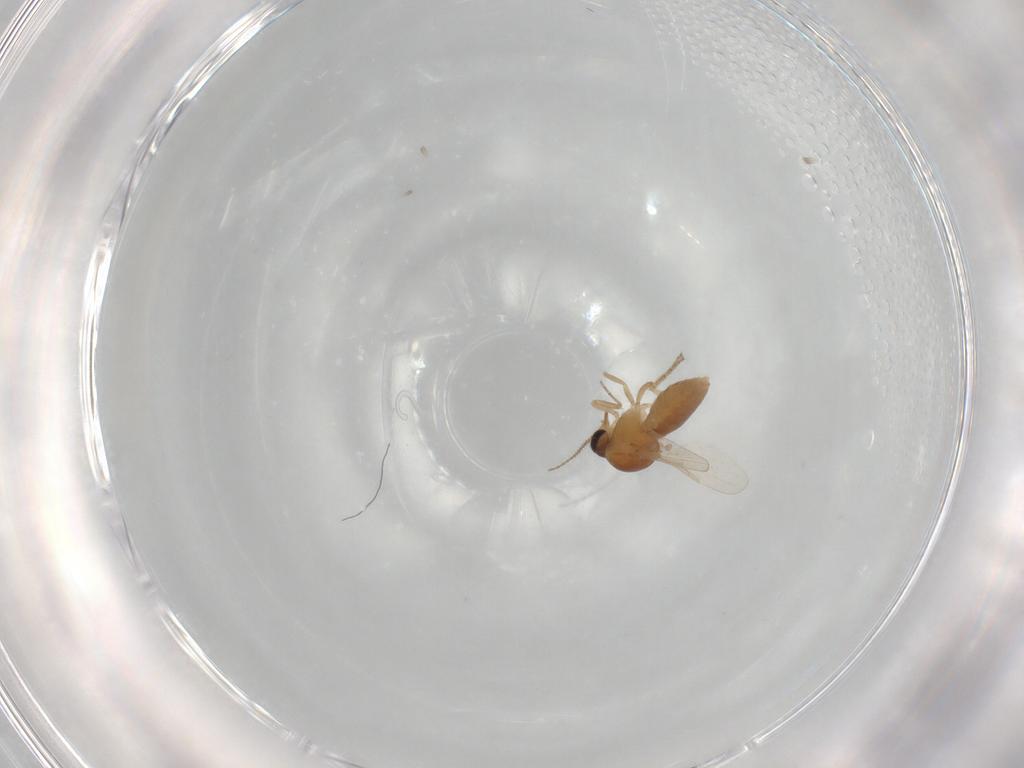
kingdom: Animalia
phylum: Arthropoda
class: Insecta
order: Diptera
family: Ceratopogonidae
